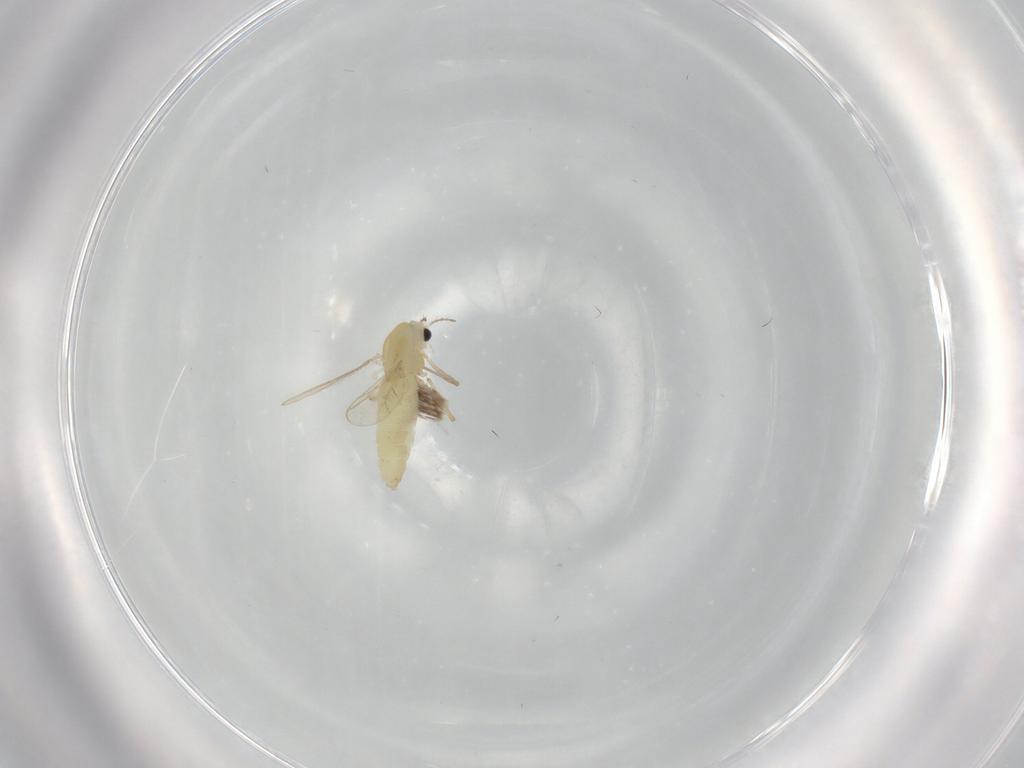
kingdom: Animalia
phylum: Arthropoda
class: Insecta
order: Diptera
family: Chironomidae
